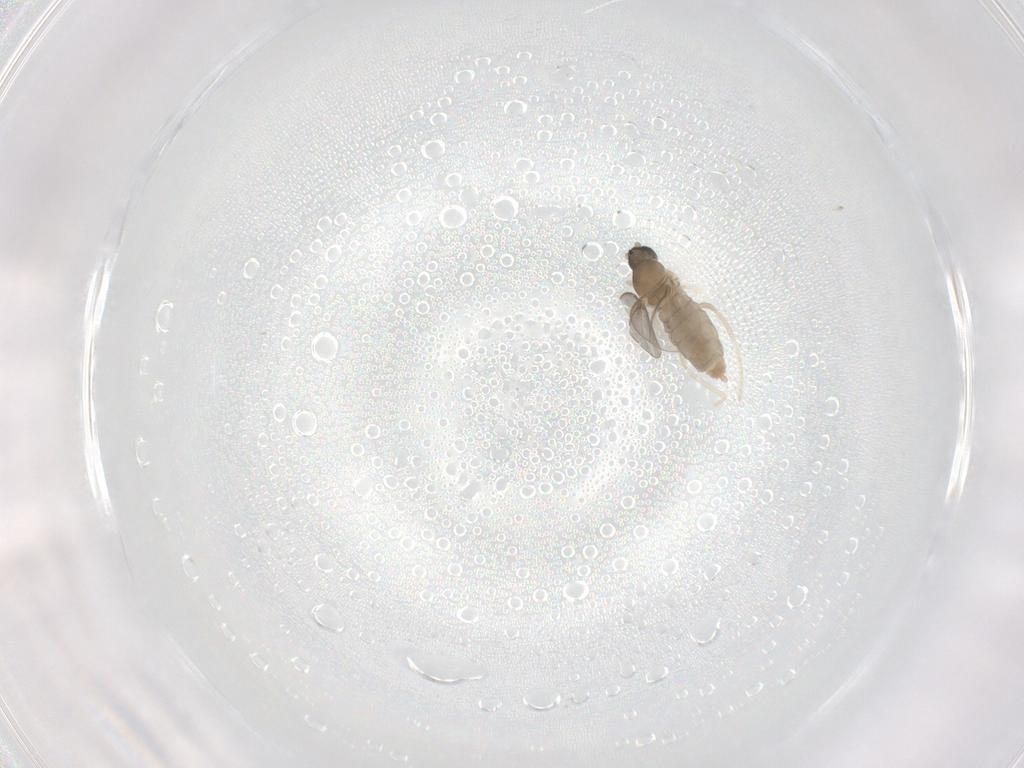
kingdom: Animalia
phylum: Arthropoda
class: Insecta
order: Diptera
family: Cecidomyiidae
